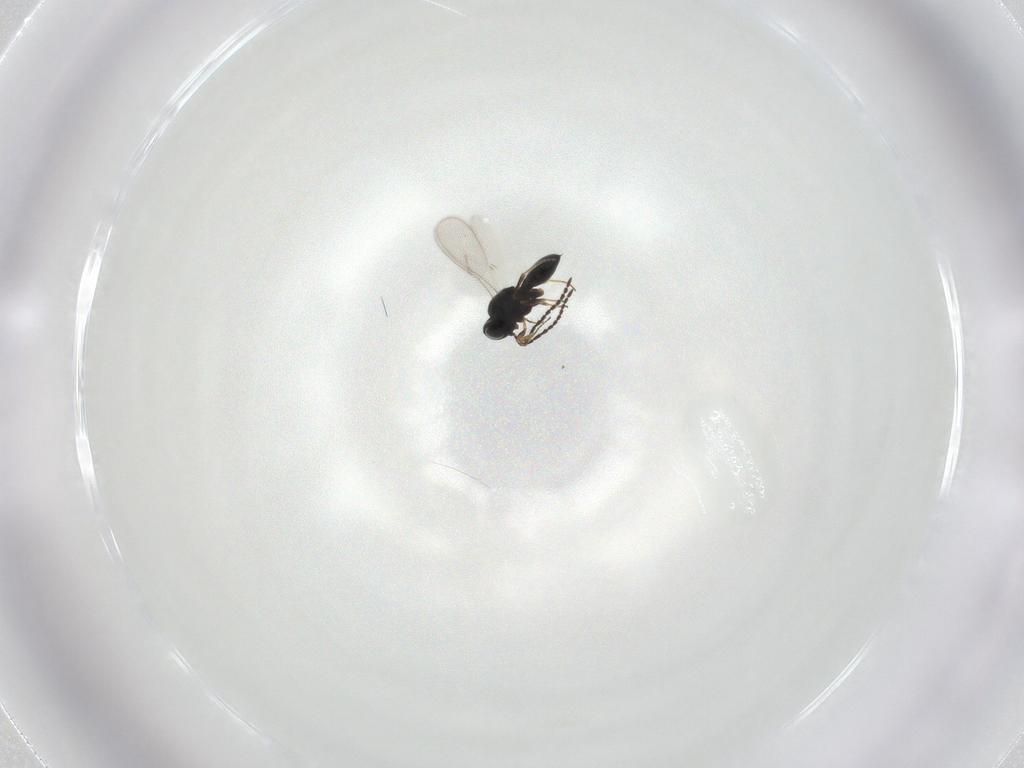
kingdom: Animalia
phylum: Arthropoda
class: Insecta
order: Hymenoptera
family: Scelionidae
